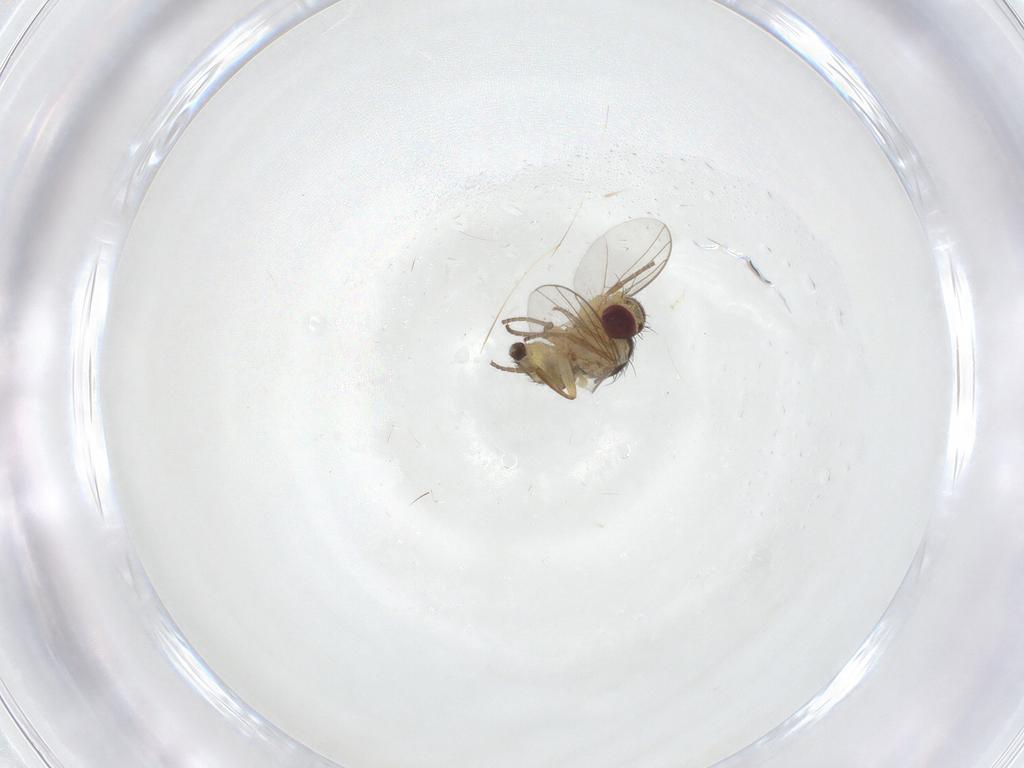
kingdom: Animalia
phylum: Arthropoda
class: Insecta
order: Diptera
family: Agromyzidae
